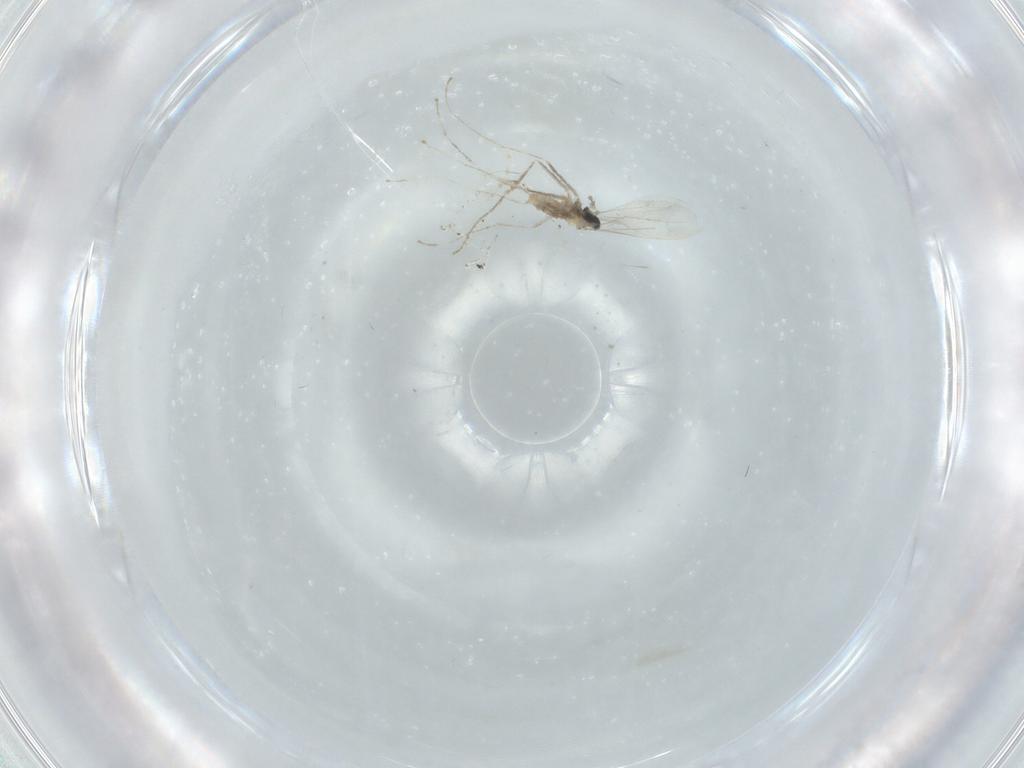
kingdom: Animalia
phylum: Arthropoda
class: Insecta
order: Diptera
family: Cecidomyiidae
